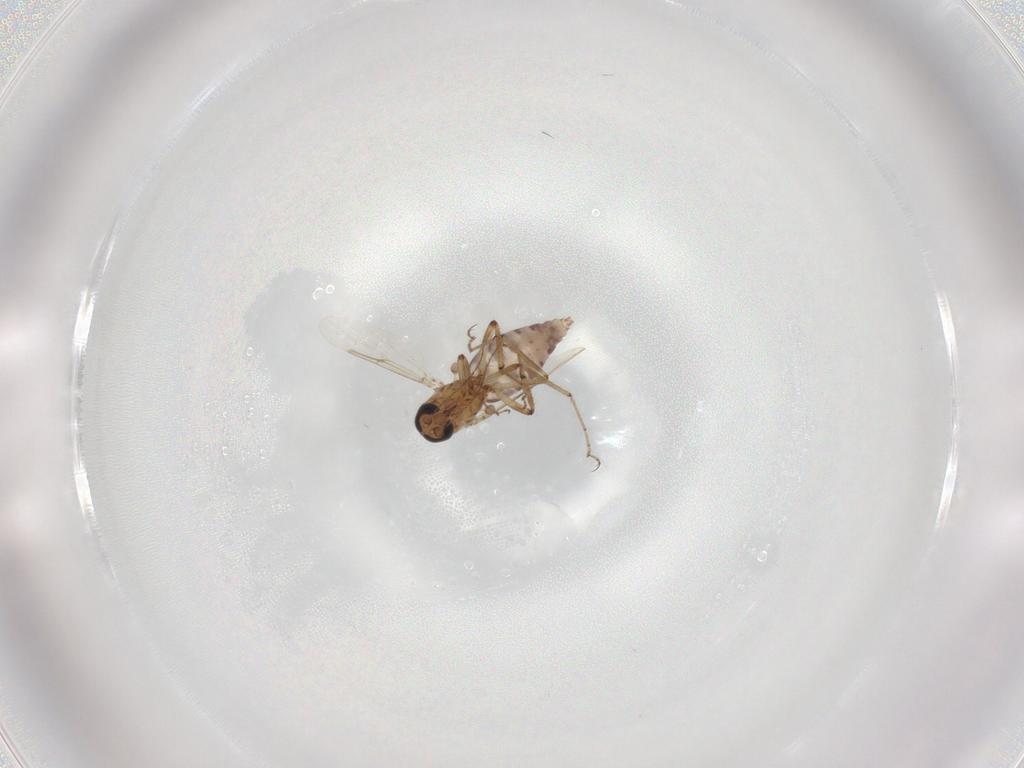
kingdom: Animalia
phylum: Arthropoda
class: Insecta
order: Diptera
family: Ceratopogonidae
